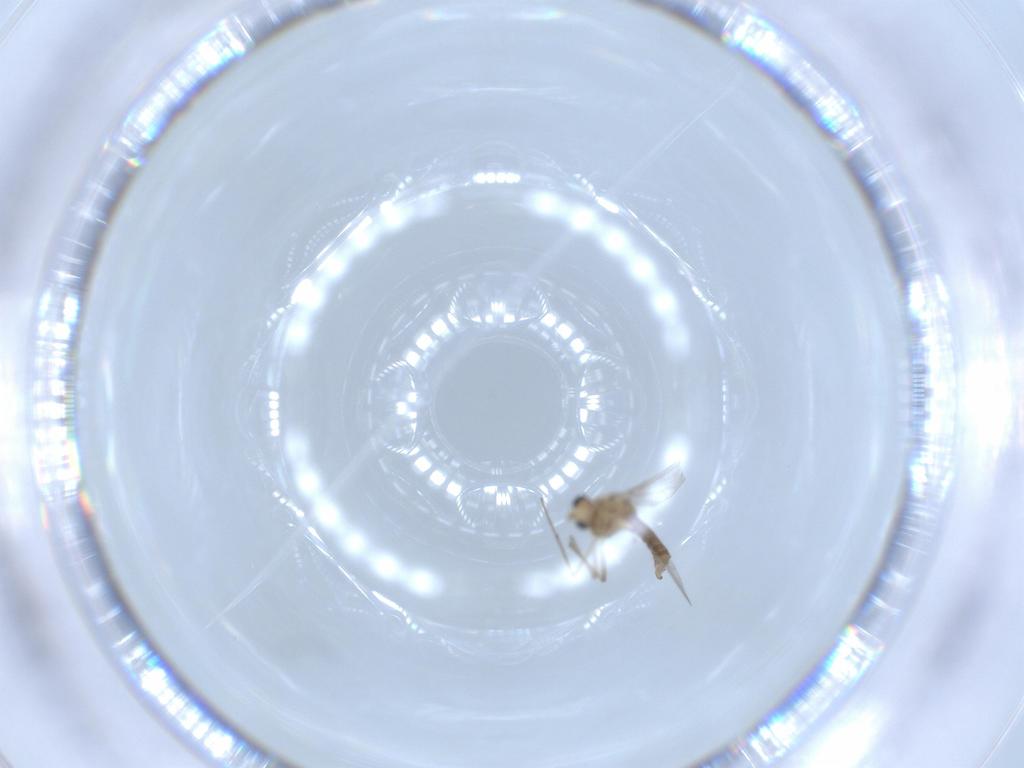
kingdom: Animalia
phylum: Arthropoda
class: Insecta
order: Diptera
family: Chironomidae
